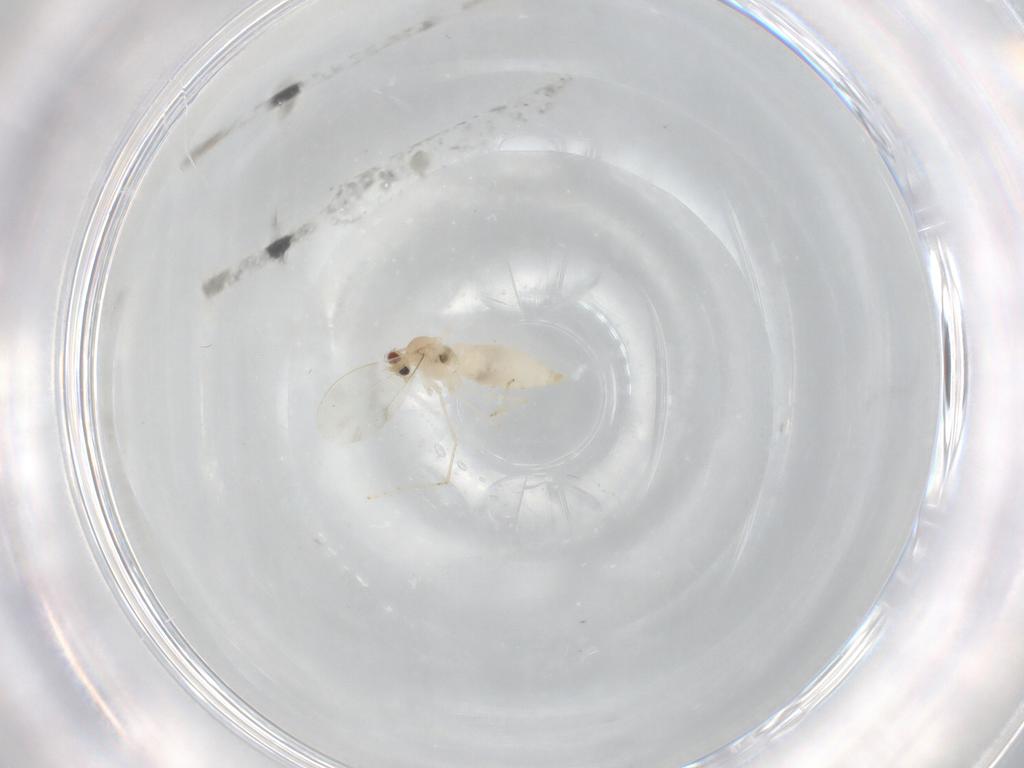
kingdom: Animalia
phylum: Arthropoda
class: Insecta
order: Diptera
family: Cecidomyiidae
